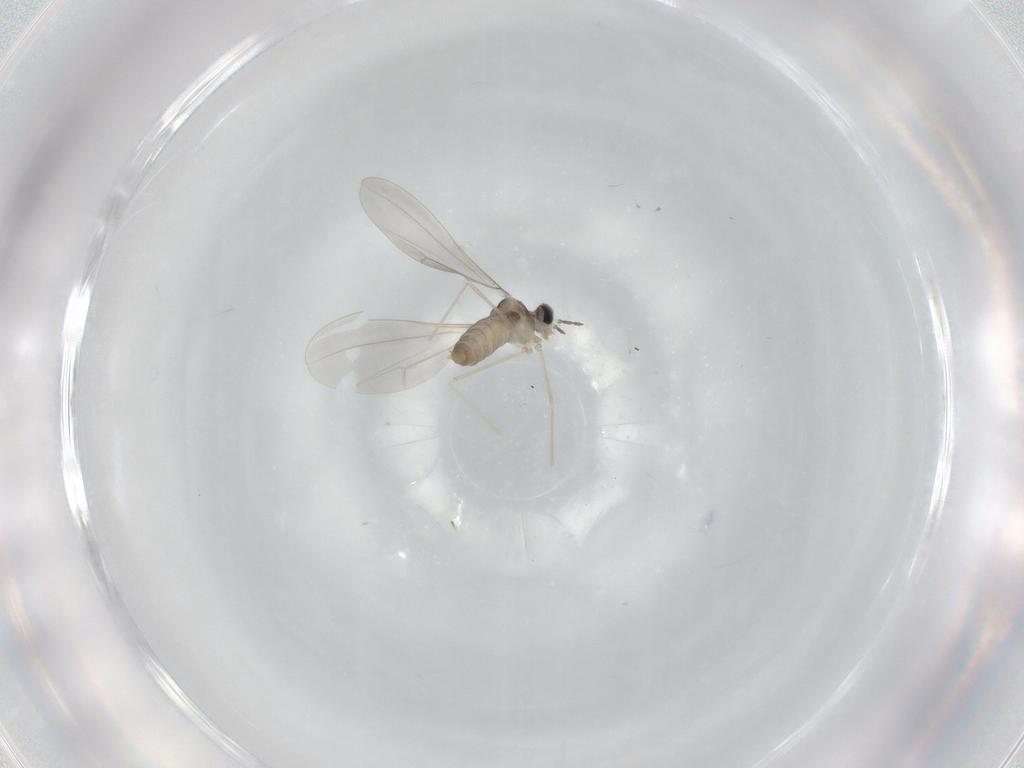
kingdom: Animalia
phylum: Arthropoda
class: Insecta
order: Diptera
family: Cecidomyiidae
